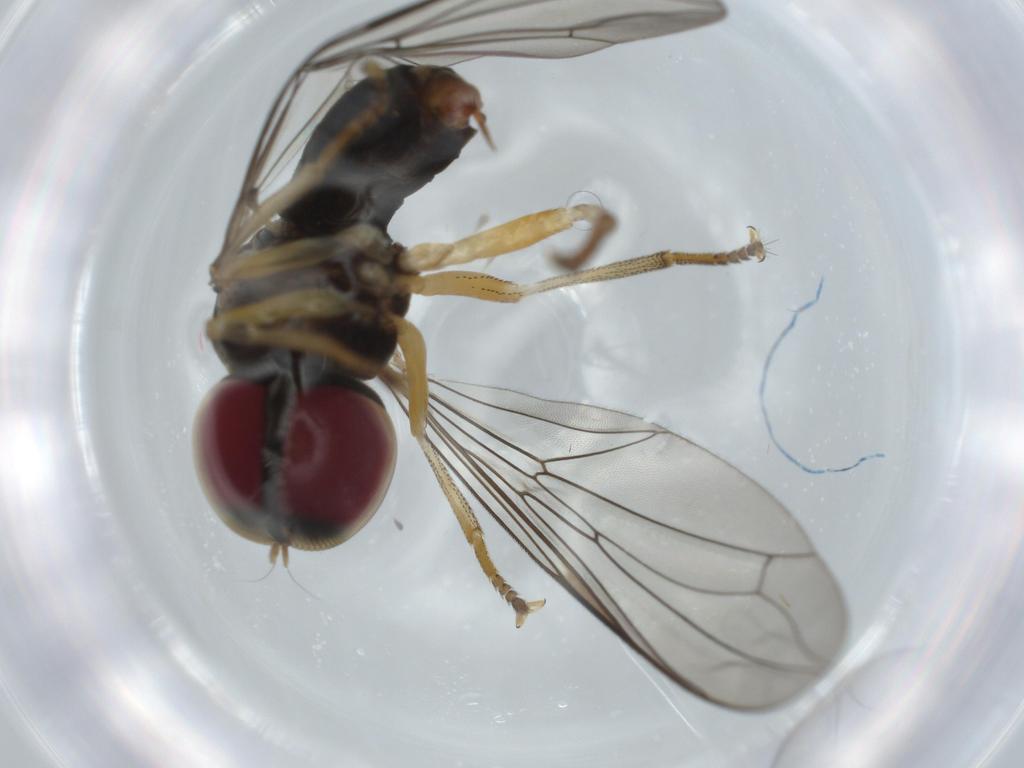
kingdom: Animalia
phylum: Arthropoda
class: Insecta
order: Diptera
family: Pipunculidae
